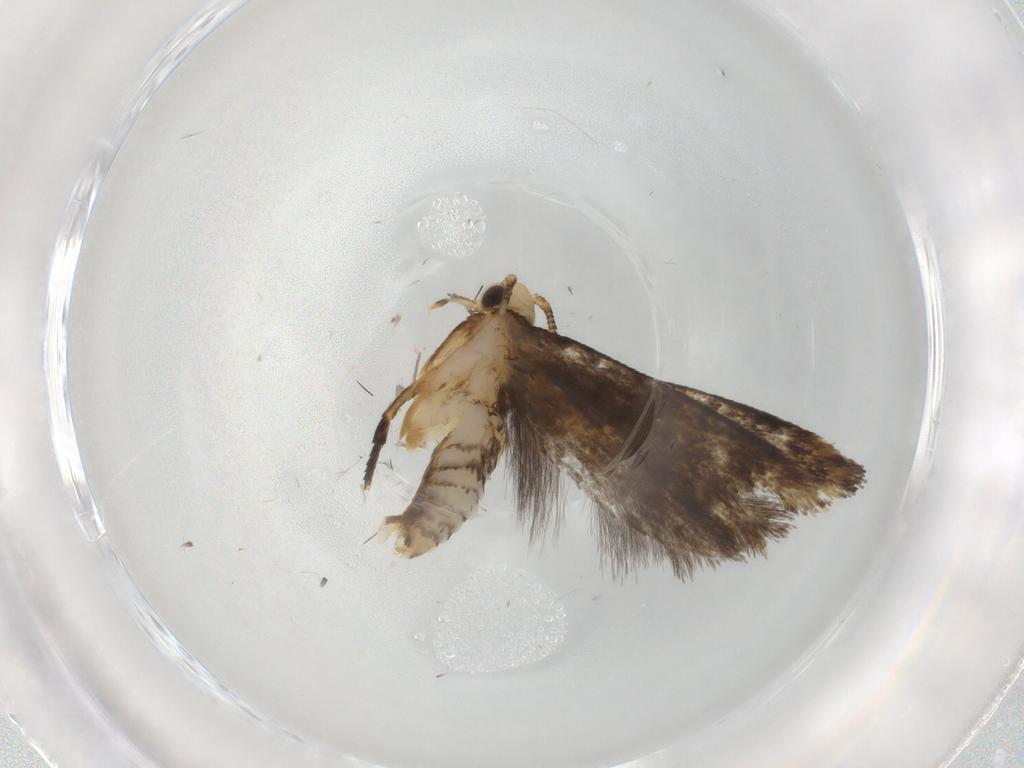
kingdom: Animalia
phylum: Arthropoda
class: Insecta
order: Lepidoptera
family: Tineidae
